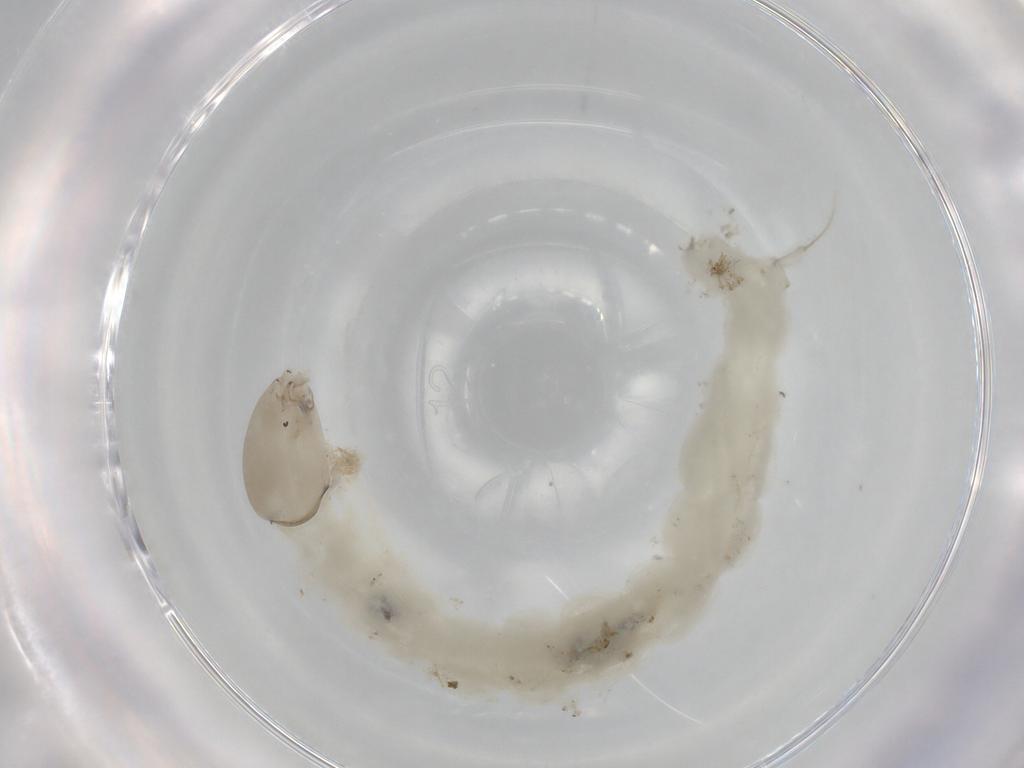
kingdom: Animalia
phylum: Arthropoda
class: Insecta
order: Diptera
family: Chironomidae
